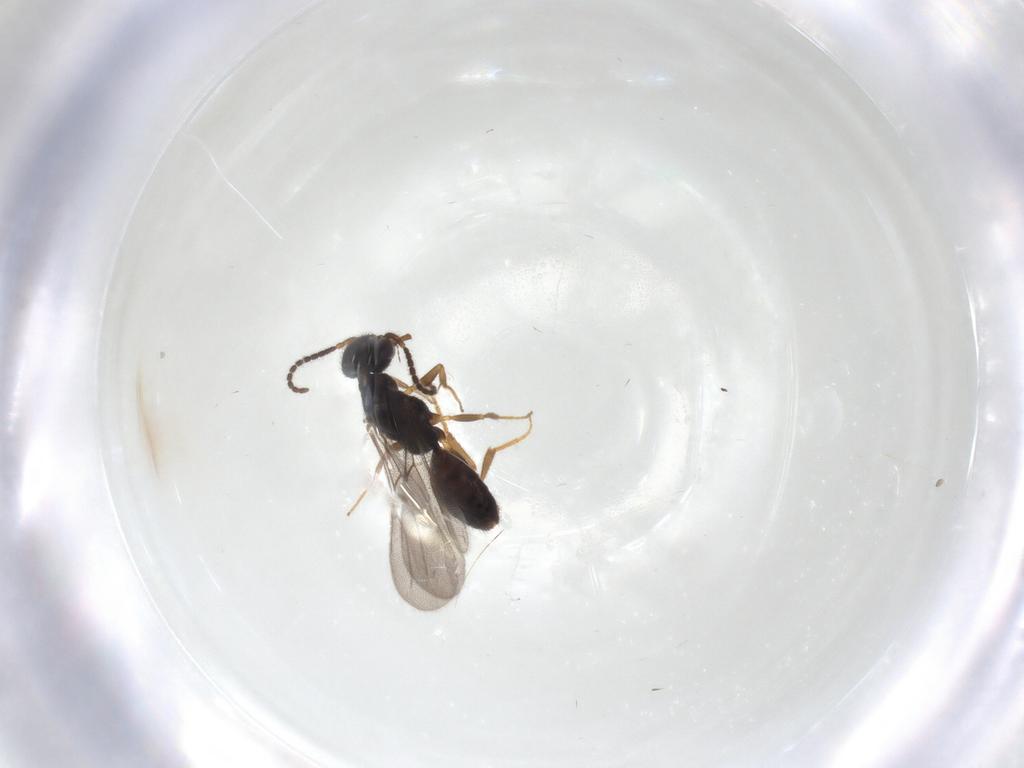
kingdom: Animalia
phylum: Arthropoda
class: Insecta
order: Hymenoptera
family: Bethylidae
